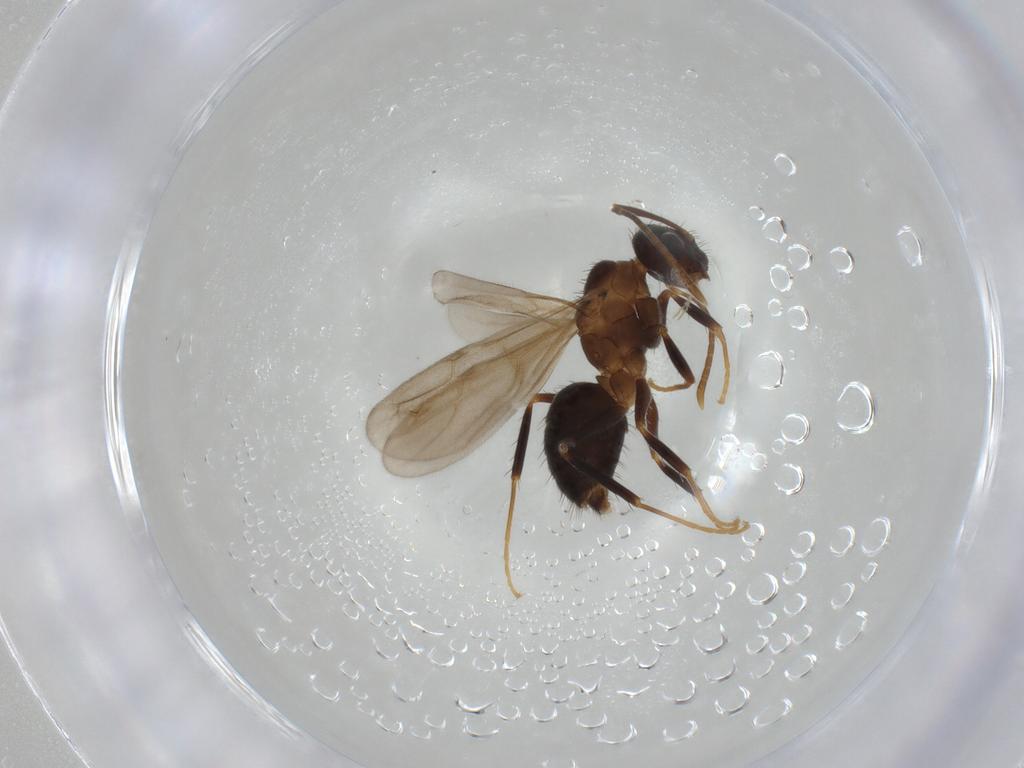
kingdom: Animalia
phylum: Arthropoda
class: Insecta
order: Hymenoptera
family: Formicidae
